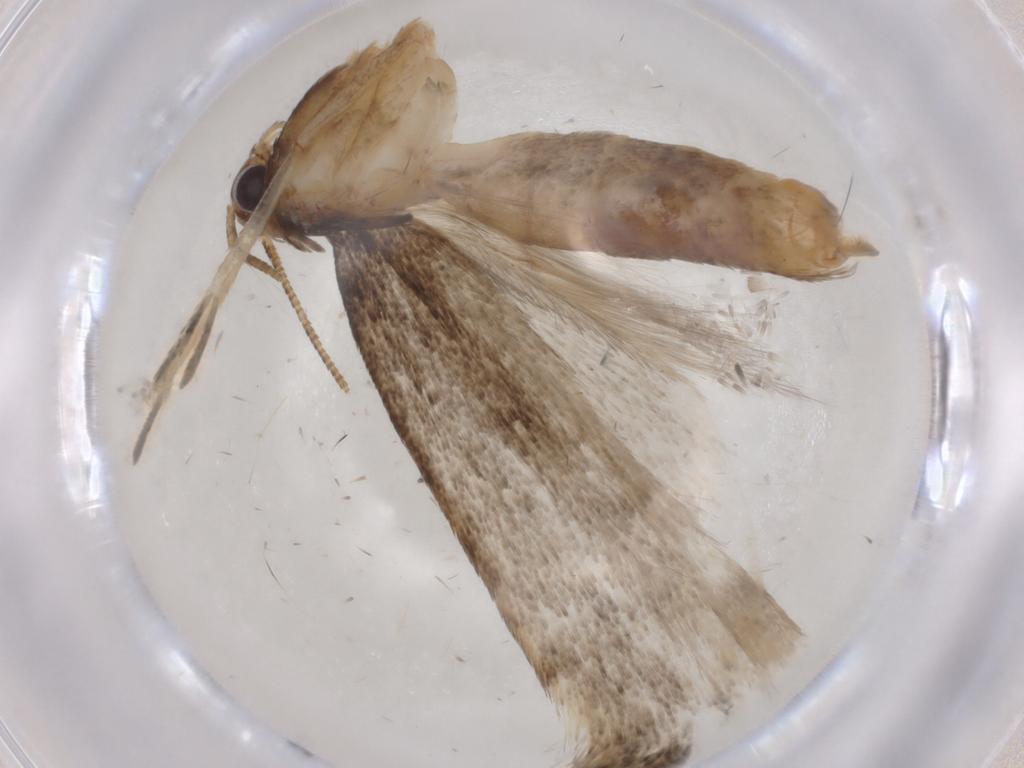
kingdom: Animalia
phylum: Arthropoda
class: Insecta
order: Lepidoptera
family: Gelechiidae
